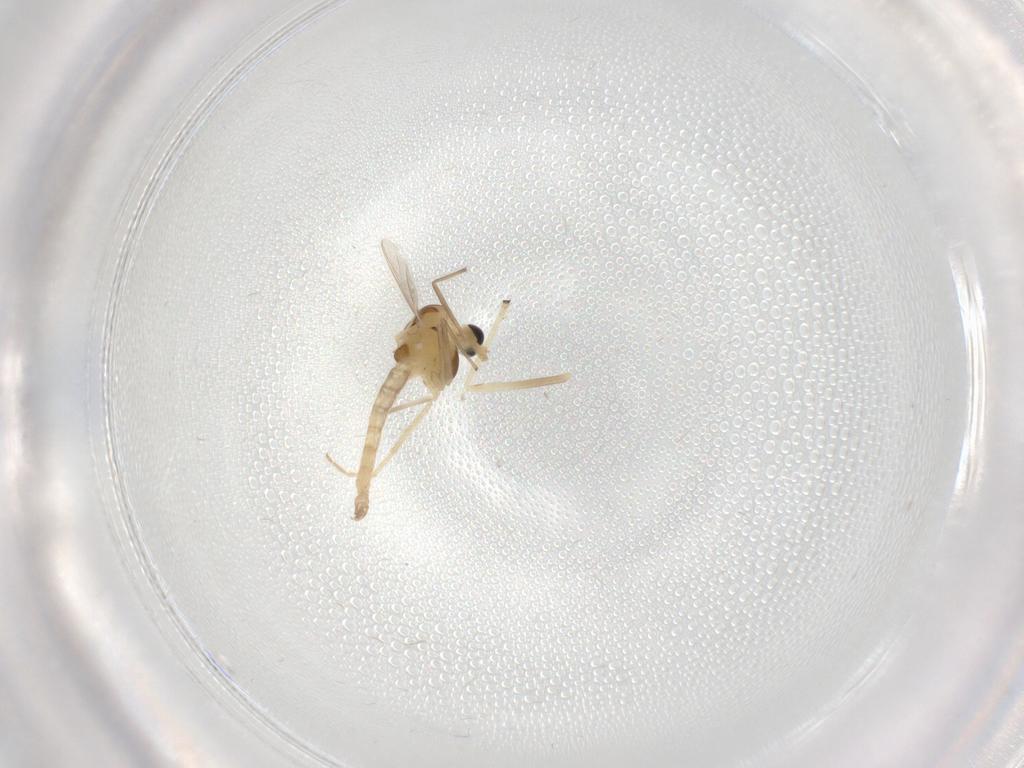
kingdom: Animalia
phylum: Arthropoda
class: Insecta
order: Diptera
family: Chironomidae
